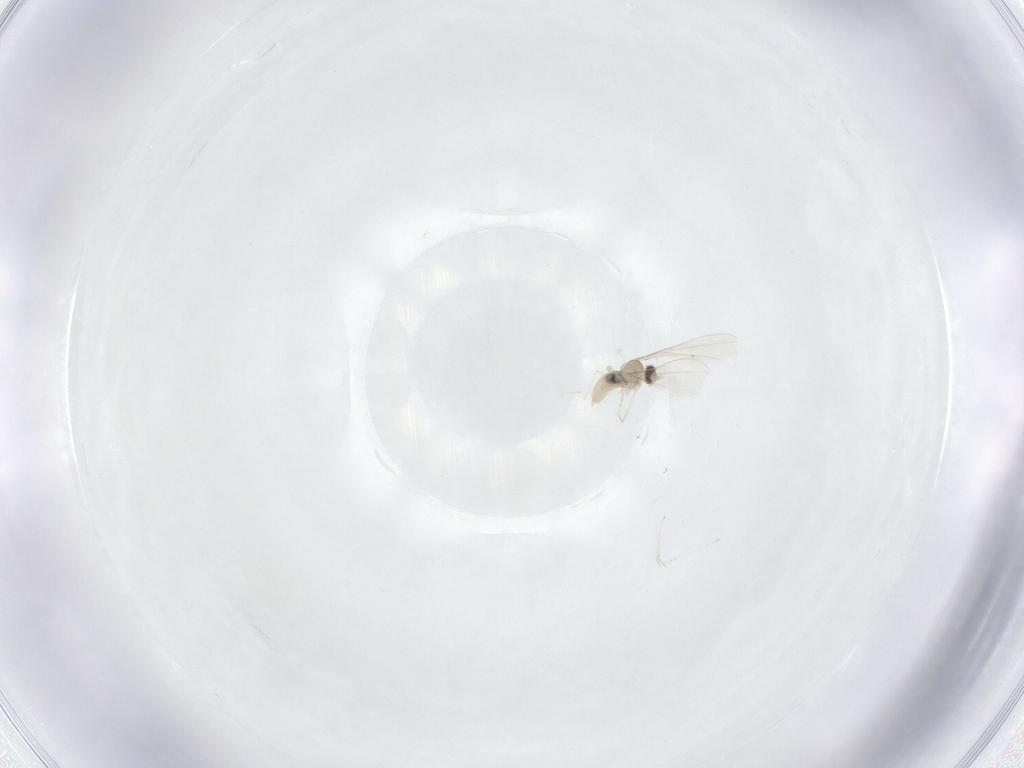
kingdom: Animalia
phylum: Arthropoda
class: Insecta
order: Diptera
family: Cecidomyiidae
